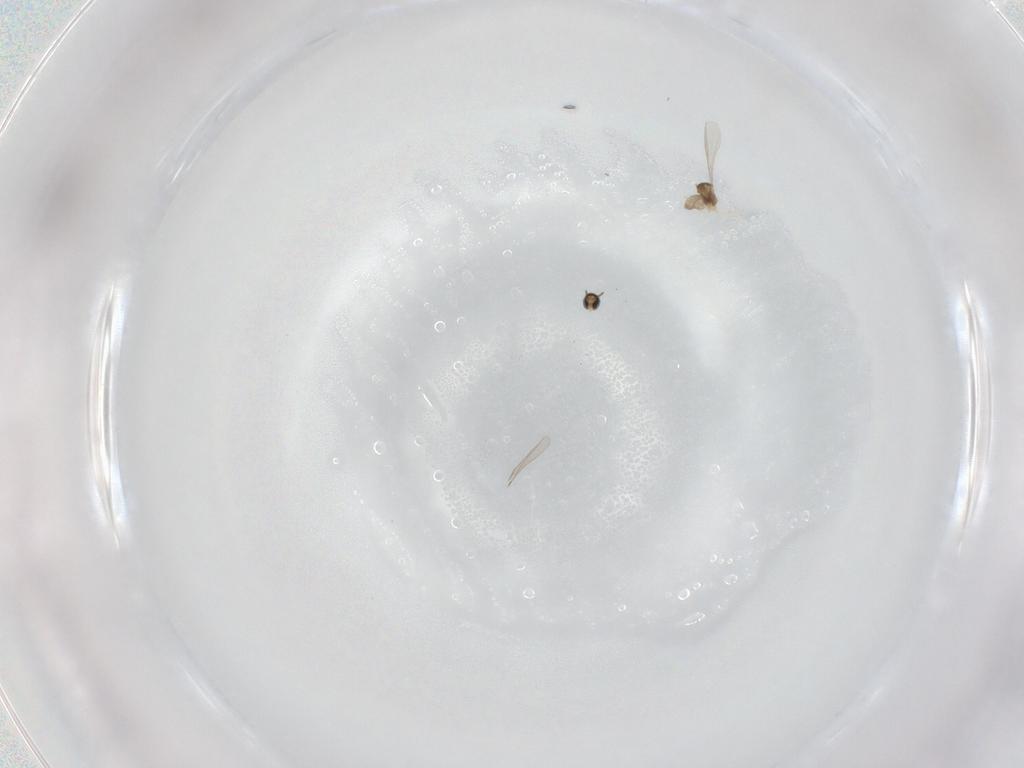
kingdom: Animalia
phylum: Arthropoda
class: Insecta
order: Diptera
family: Cecidomyiidae
